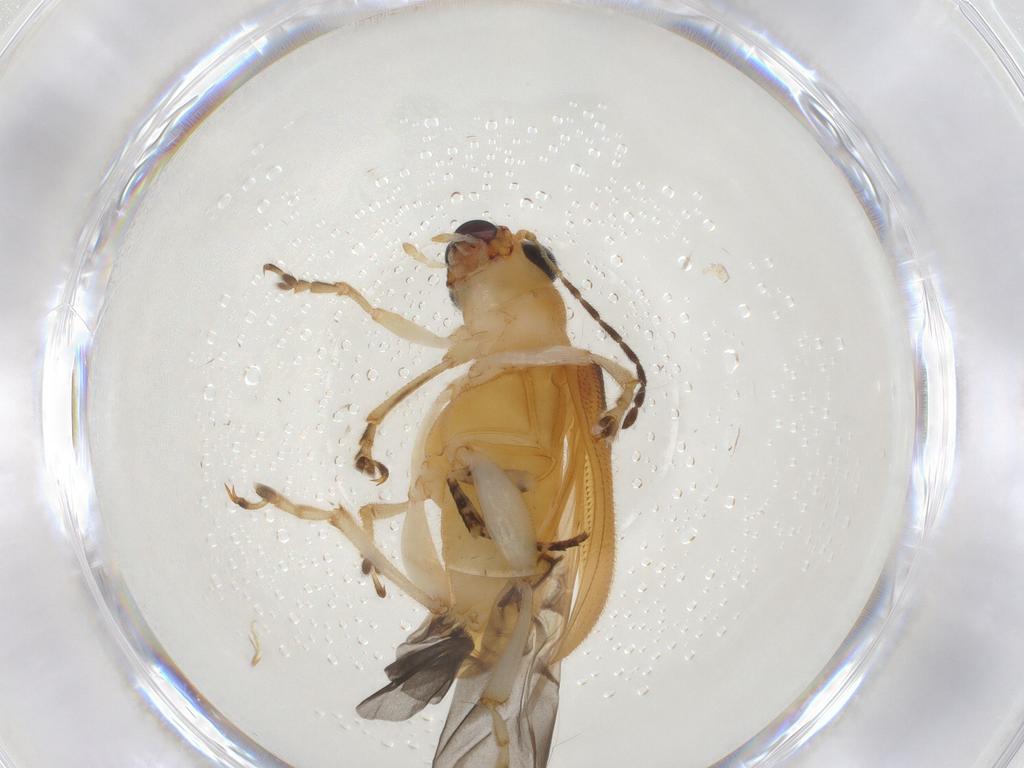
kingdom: Animalia
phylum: Arthropoda
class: Insecta
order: Coleoptera
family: Chrysomelidae
